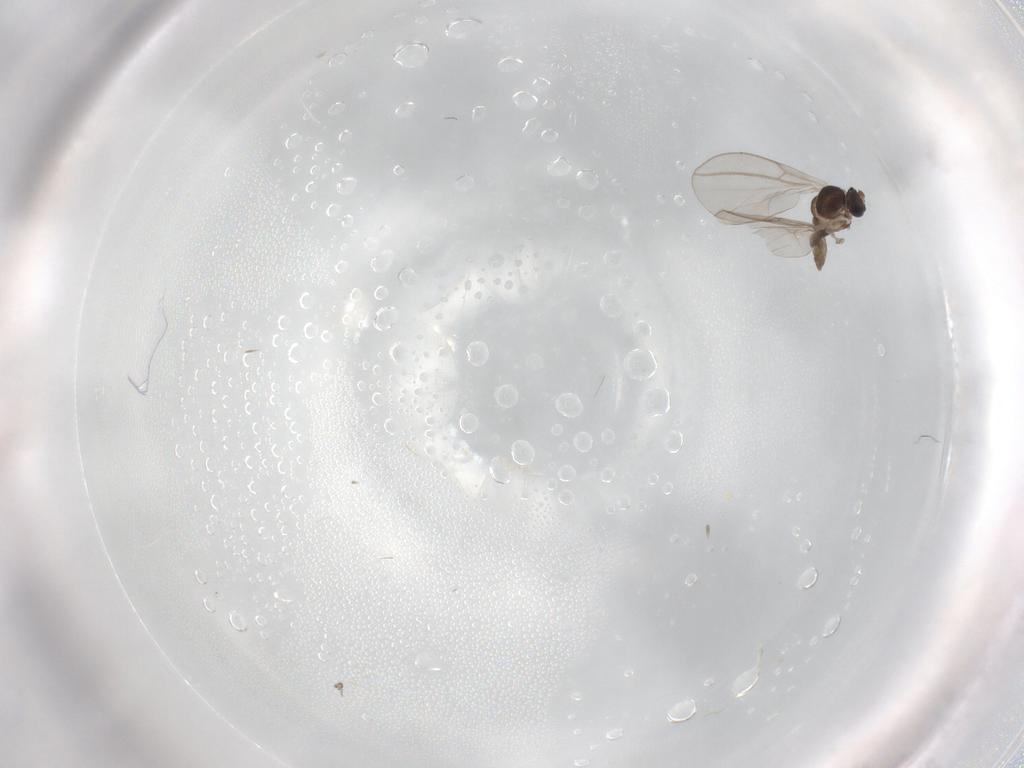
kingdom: Animalia
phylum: Arthropoda
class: Insecta
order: Diptera
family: Cecidomyiidae
